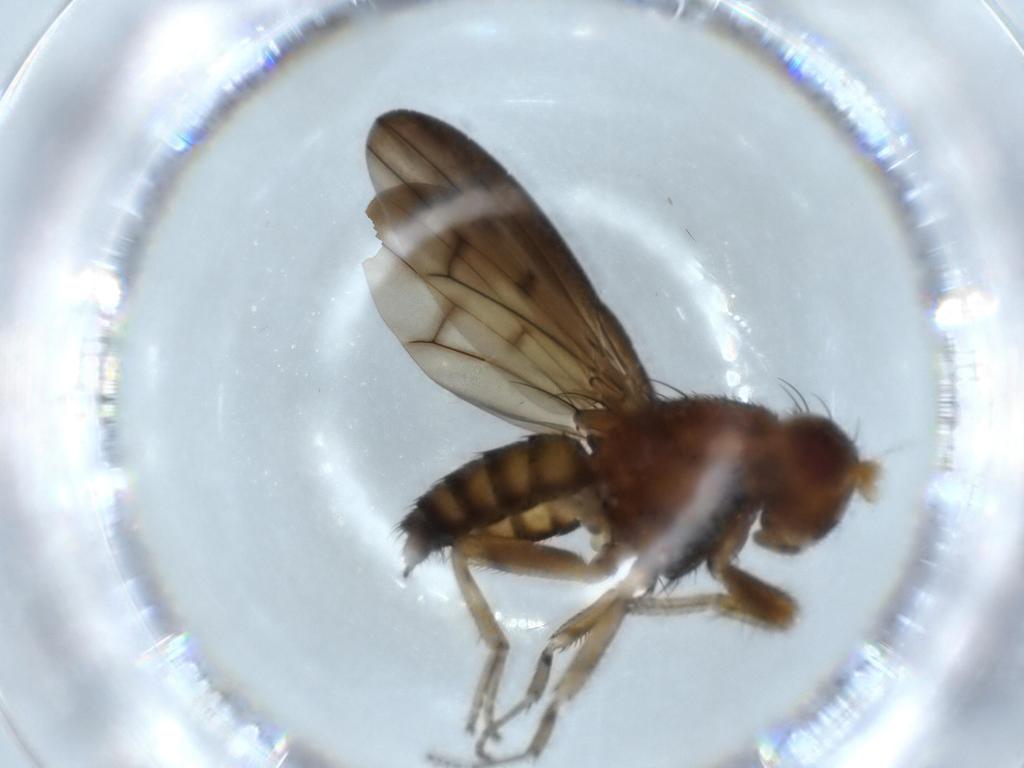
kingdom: Animalia
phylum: Arthropoda
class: Insecta
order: Diptera
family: Lauxaniidae
